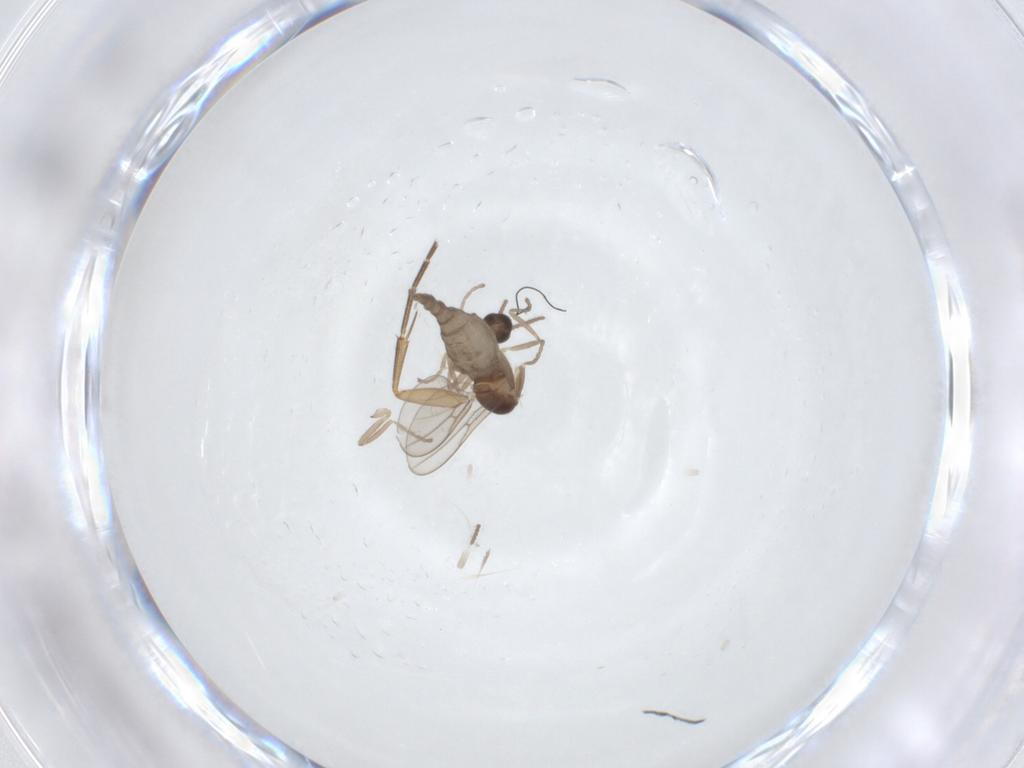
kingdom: Animalia
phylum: Arthropoda
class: Insecta
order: Diptera
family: Cecidomyiidae
